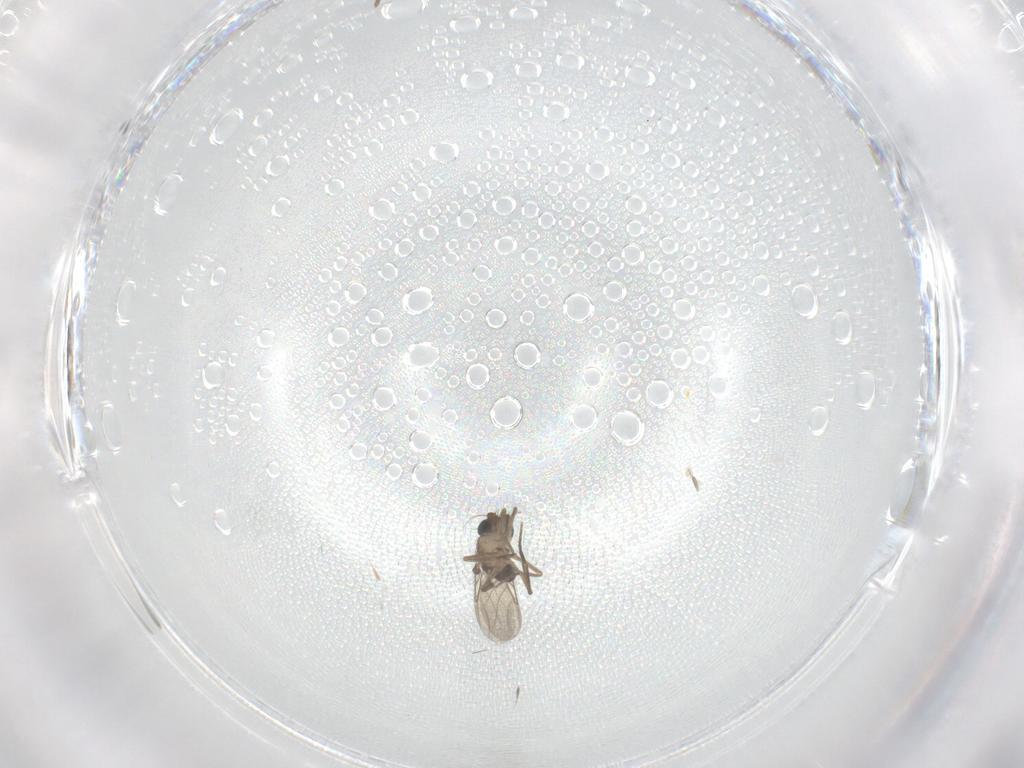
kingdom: Animalia
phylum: Arthropoda
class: Insecta
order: Diptera
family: Phoridae
